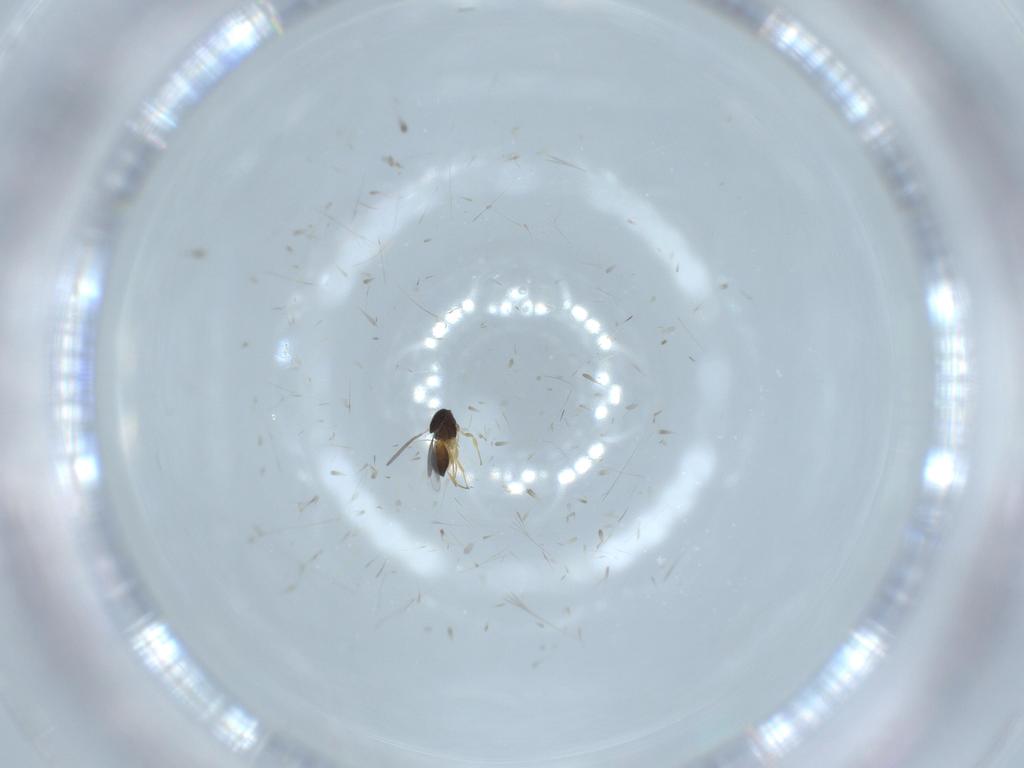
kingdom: Animalia
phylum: Arthropoda
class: Insecta
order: Hymenoptera
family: Scelionidae
